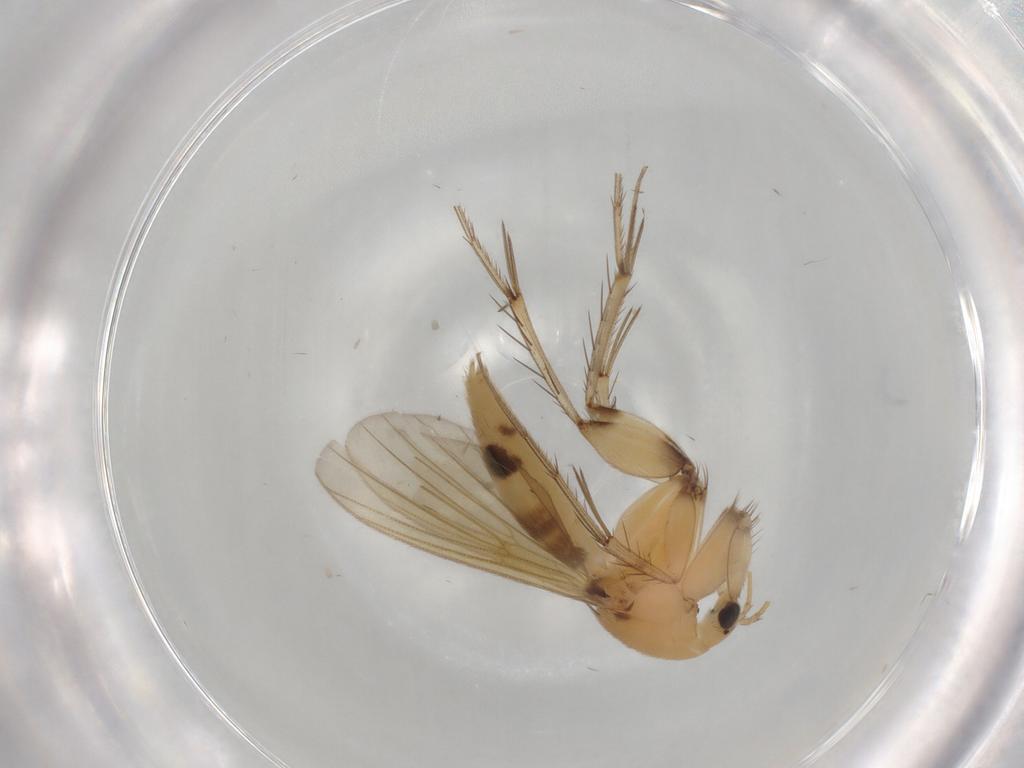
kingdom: Animalia
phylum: Arthropoda
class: Insecta
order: Diptera
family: Mycetophilidae
